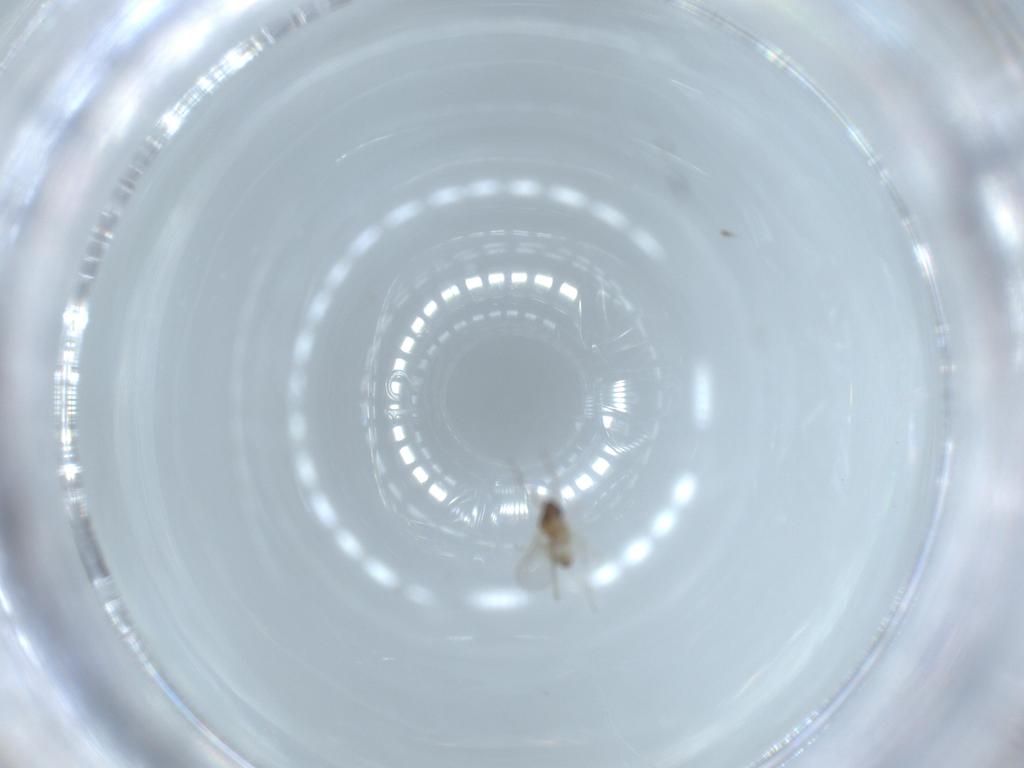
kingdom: Animalia
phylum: Arthropoda
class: Insecta
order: Diptera
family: Cecidomyiidae
